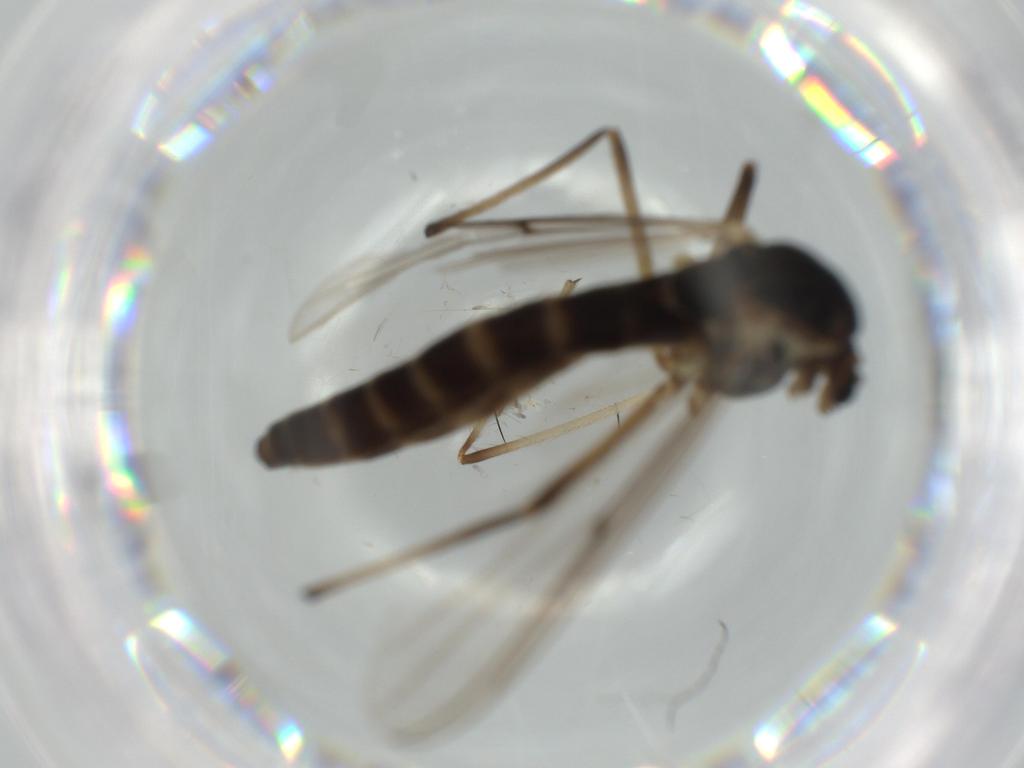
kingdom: Animalia
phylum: Arthropoda
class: Insecta
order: Diptera
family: Chironomidae
